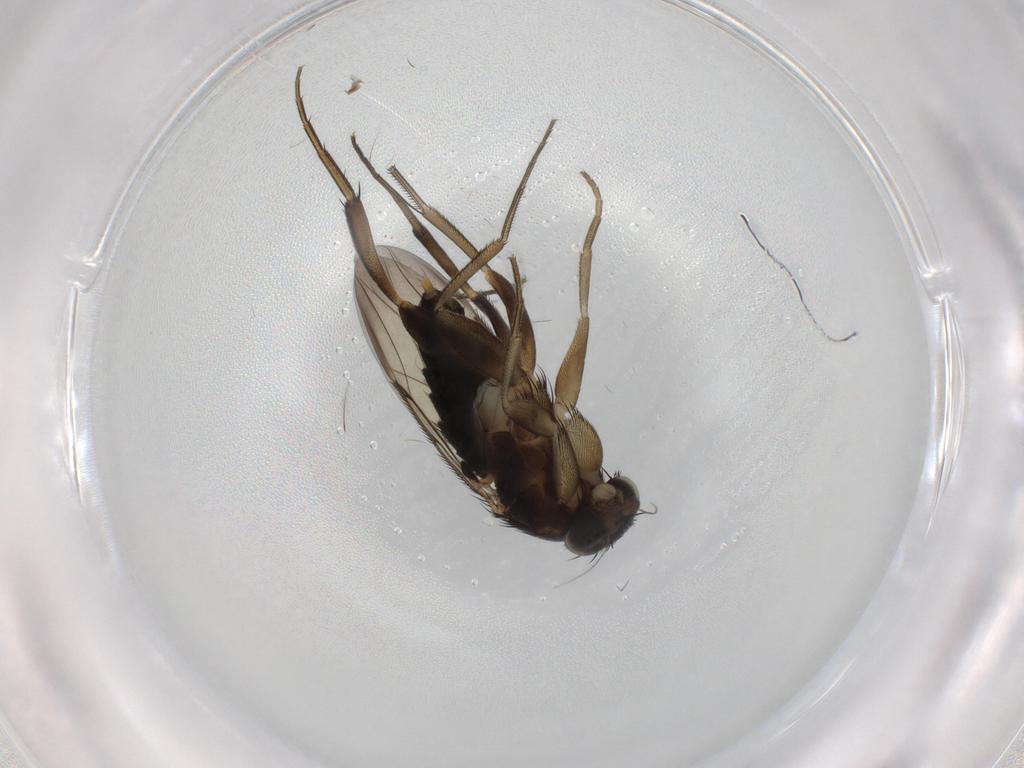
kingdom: Animalia
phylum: Arthropoda
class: Insecta
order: Diptera
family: Phoridae
